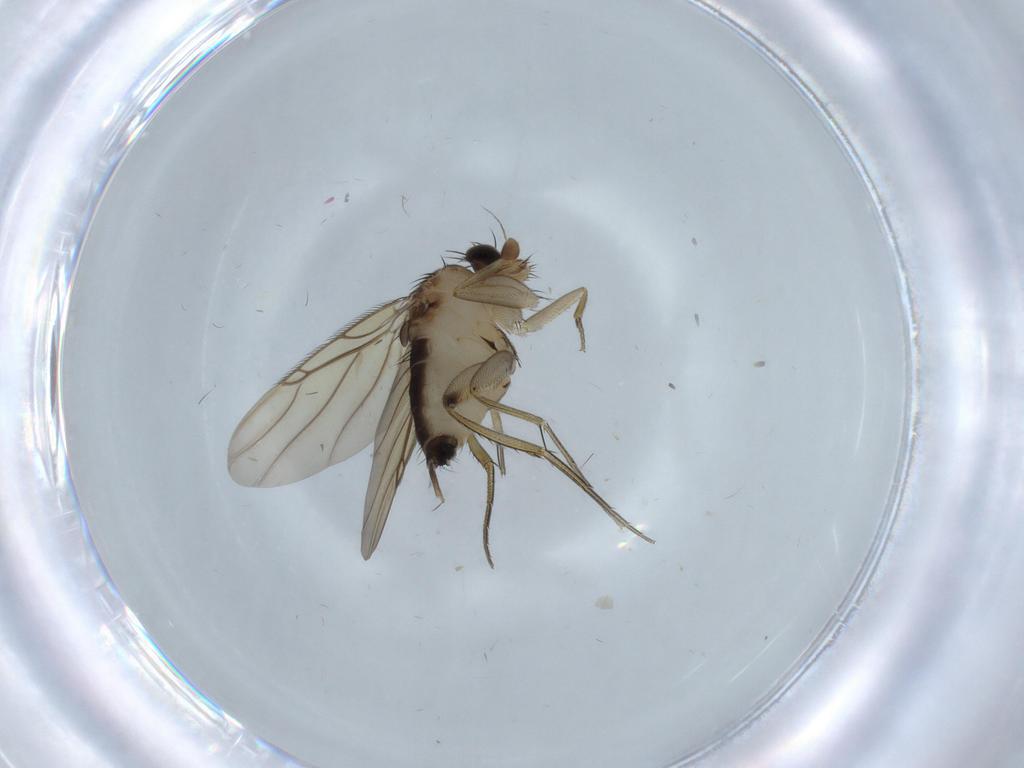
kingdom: Animalia
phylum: Arthropoda
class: Insecta
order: Diptera
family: Phoridae
